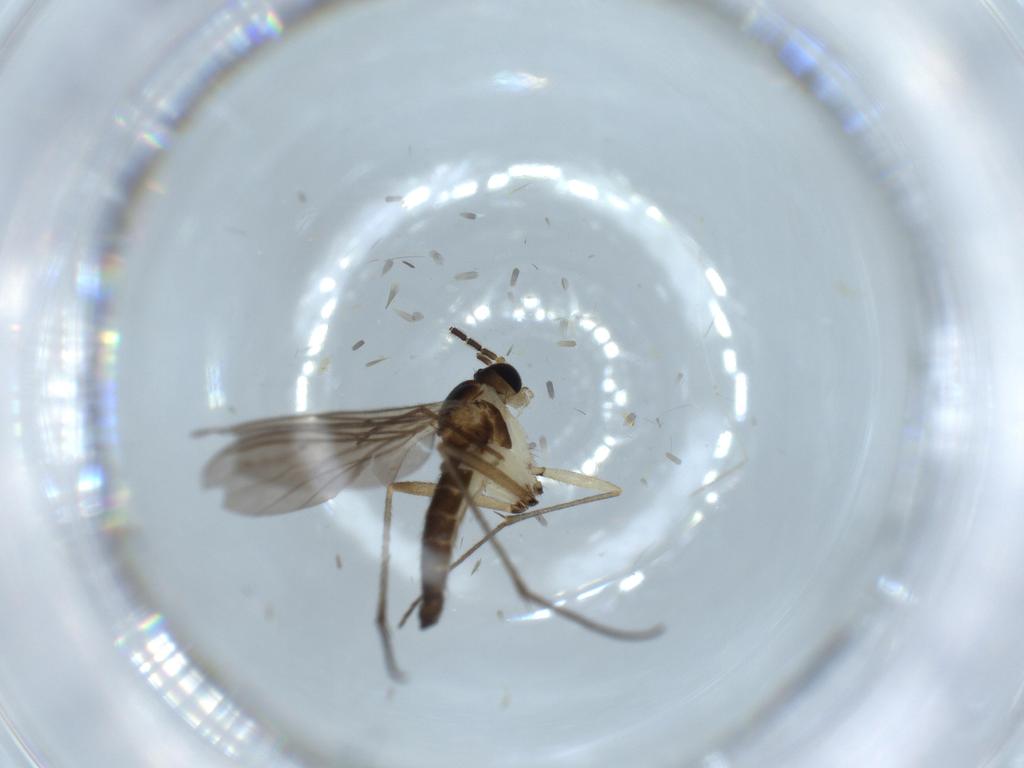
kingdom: Animalia
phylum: Arthropoda
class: Insecta
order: Diptera
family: Sciaridae
